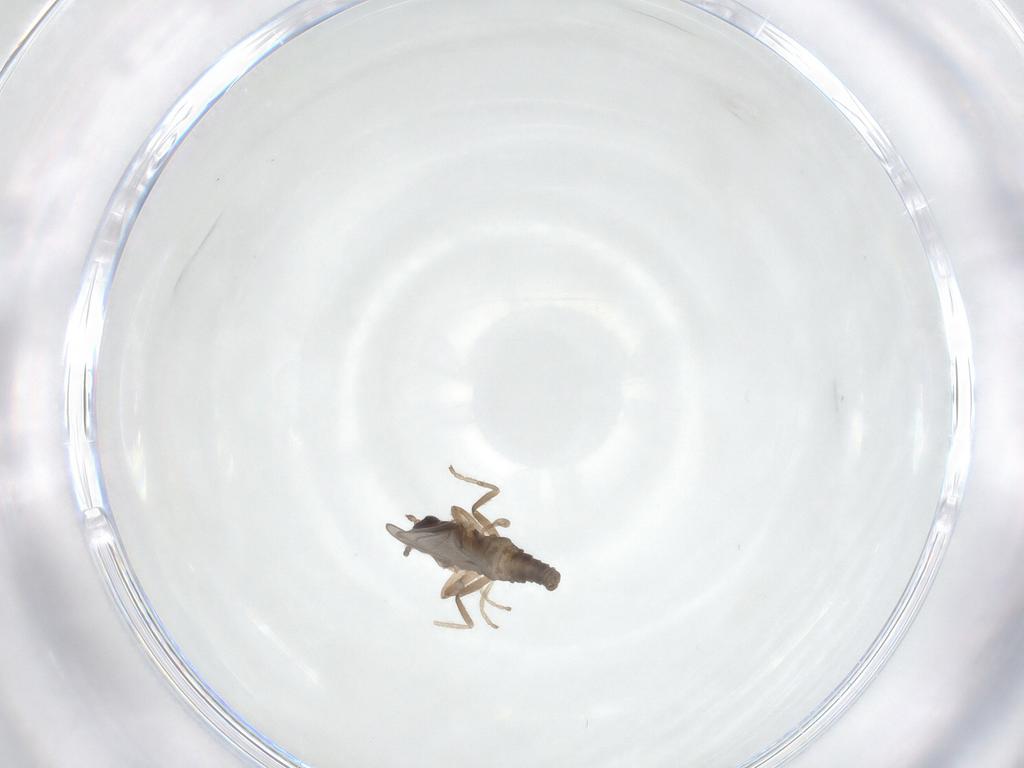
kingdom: Animalia
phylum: Arthropoda
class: Insecta
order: Diptera
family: Cecidomyiidae
